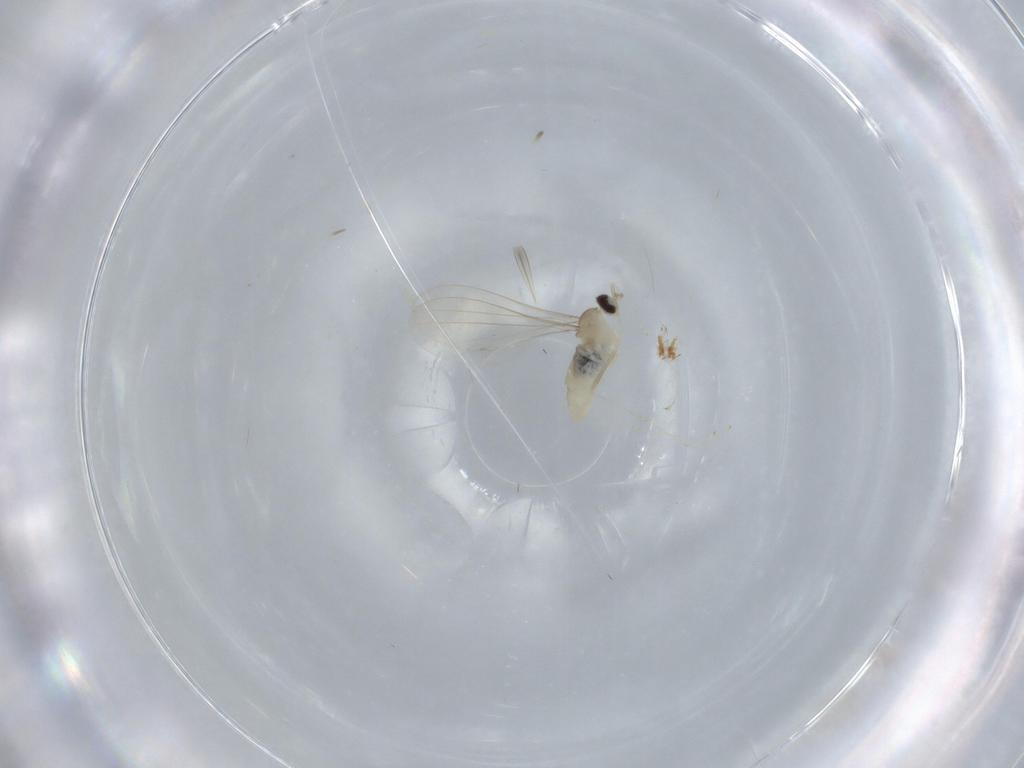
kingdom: Animalia
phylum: Arthropoda
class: Insecta
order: Diptera
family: Cecidomyiidae
